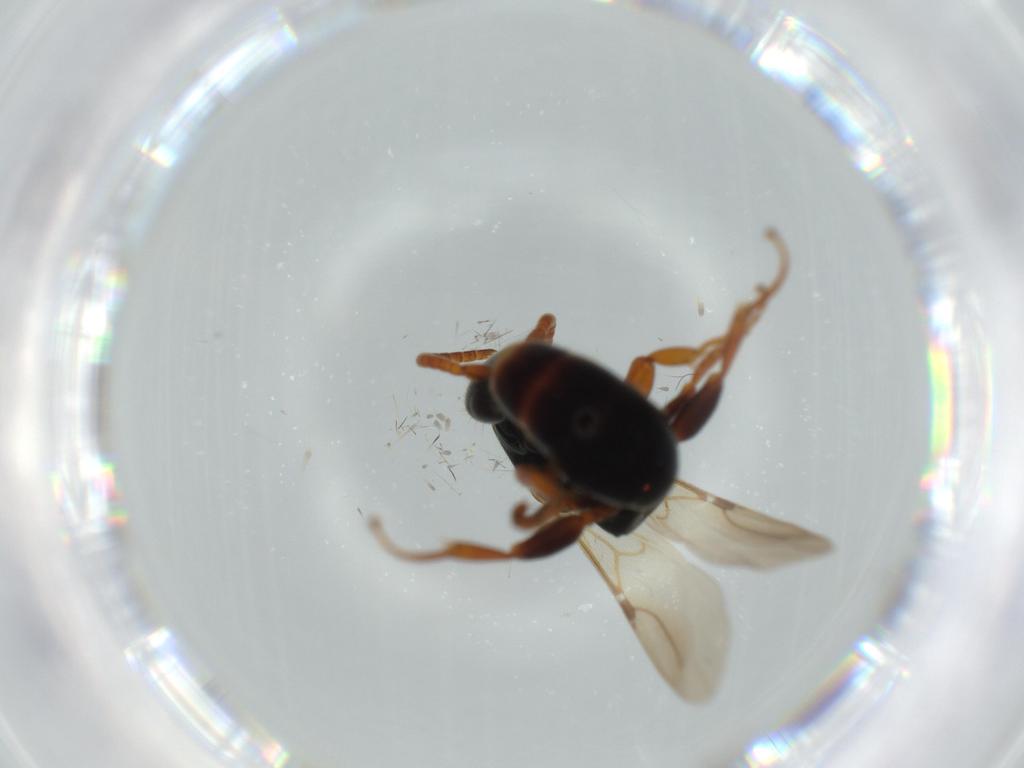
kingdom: Animalia
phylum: Arthropoda
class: Insecta
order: Hymenoptera
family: Bethylidae
